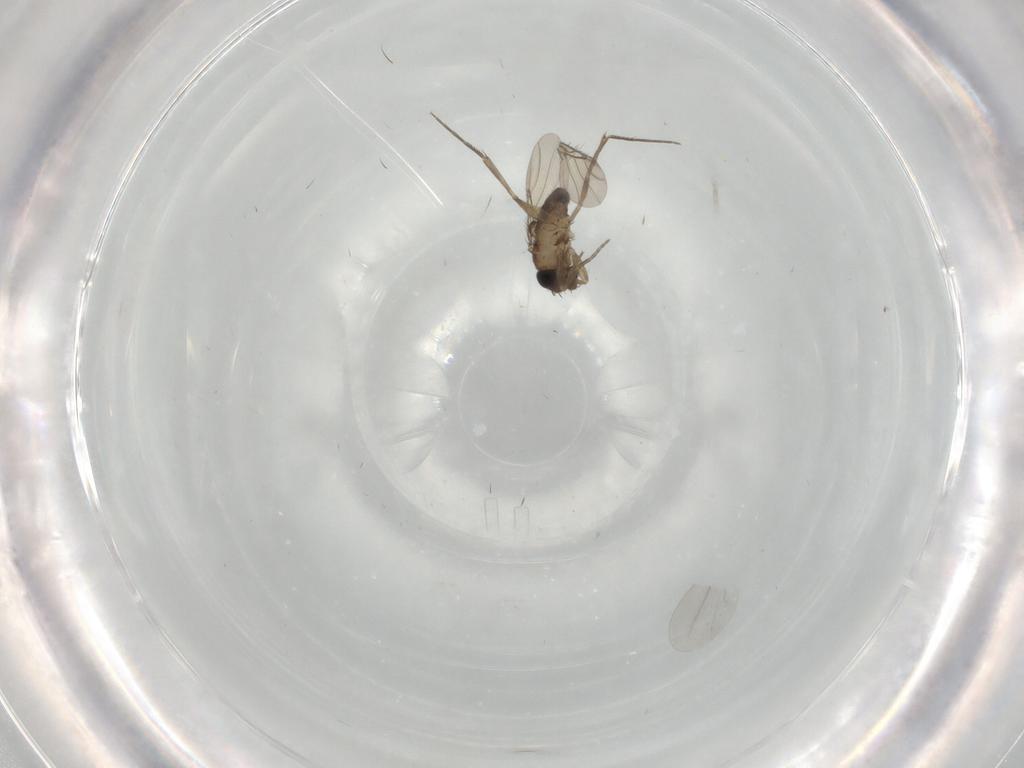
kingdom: Animalia
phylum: Arthropoda
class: Insecta
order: Diptera
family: Phoridae
